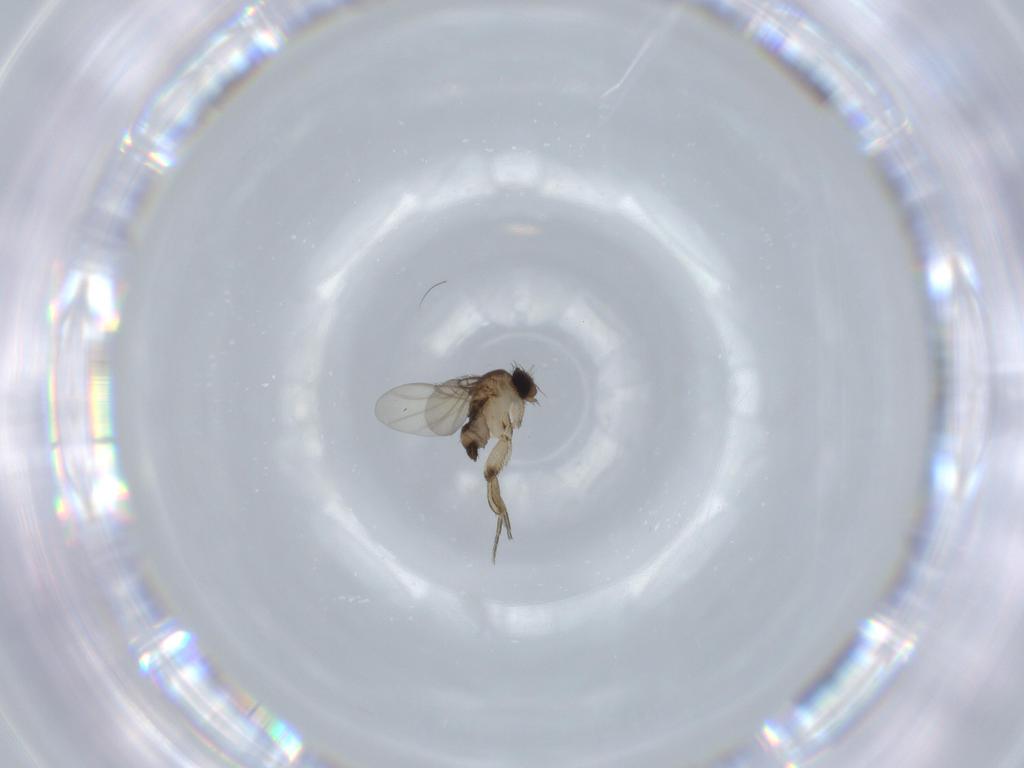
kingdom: Animalia
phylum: Arthropoda
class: Insecta
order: Diptera
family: Phoridae
